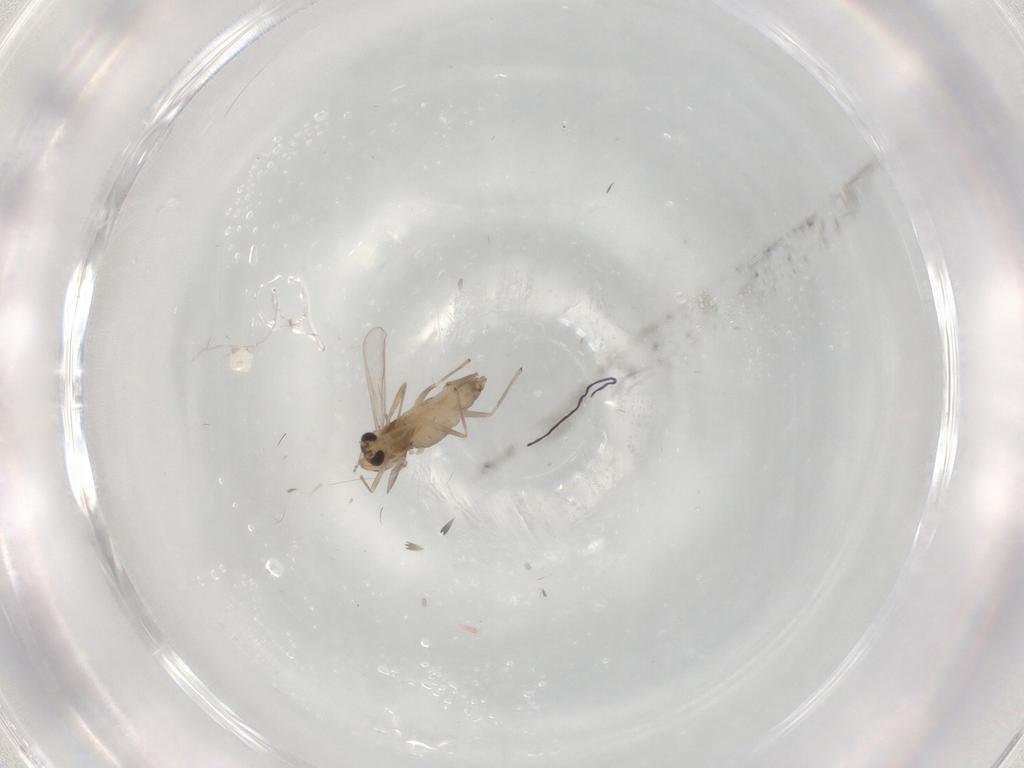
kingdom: Animalia
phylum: Arthropoda
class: Insecta
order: Diptera
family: Chironomidae
